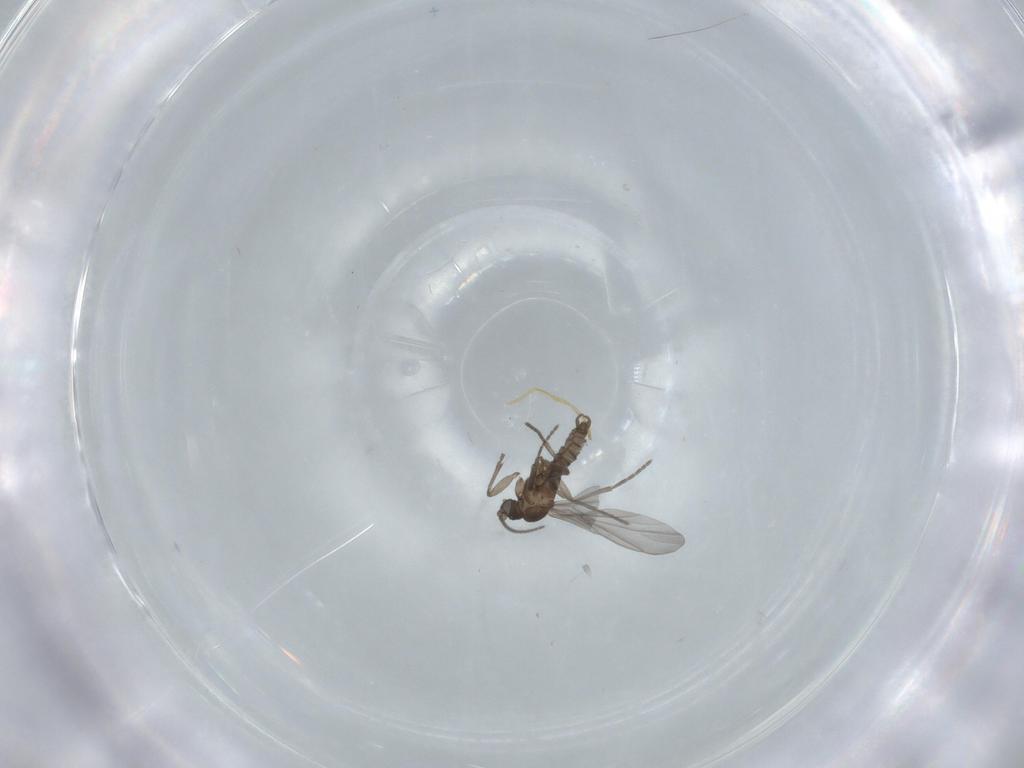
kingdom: Animalia
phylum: Arthropoda
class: Insecta
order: Diptera
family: Sciaridae
